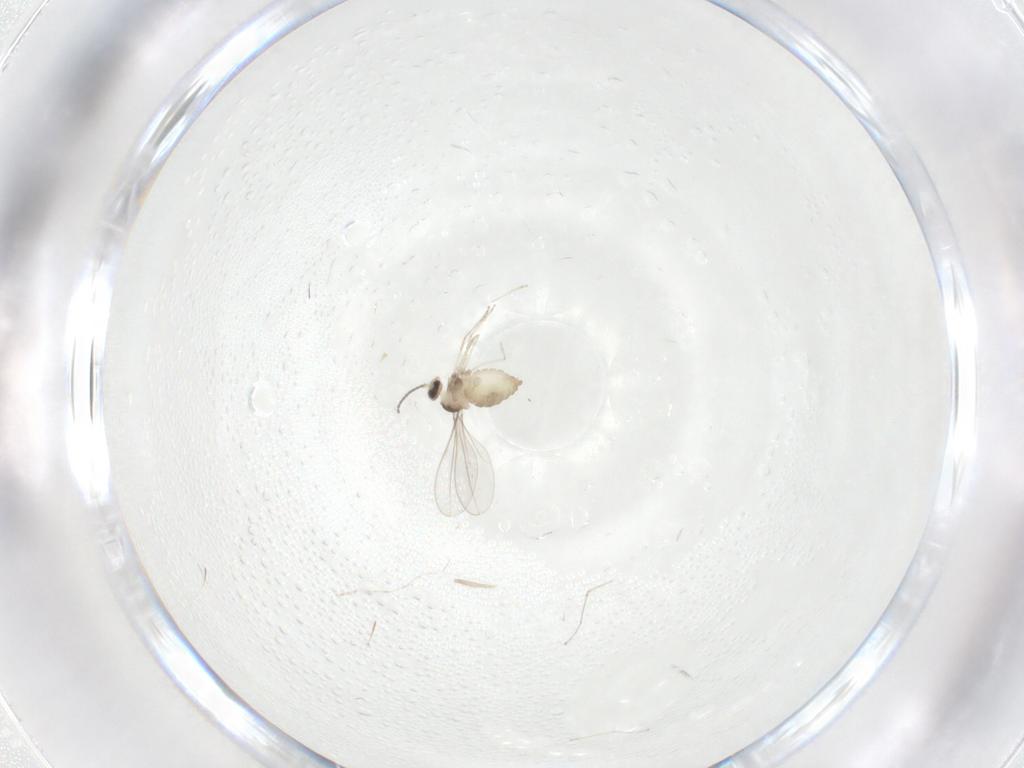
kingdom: Animalia
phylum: Arthropoda
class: Insecta
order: Diptera
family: Cecidomyiidae
